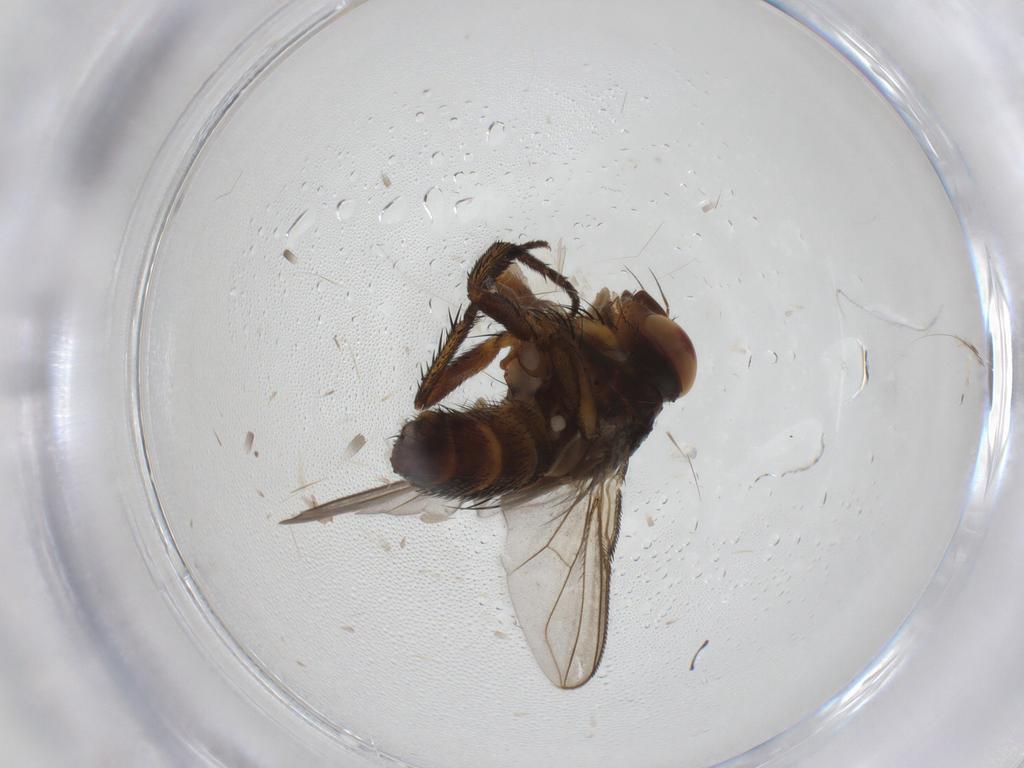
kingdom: Animalia
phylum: Arthropoda
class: Insecta
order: Diptera
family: Tachinidae
